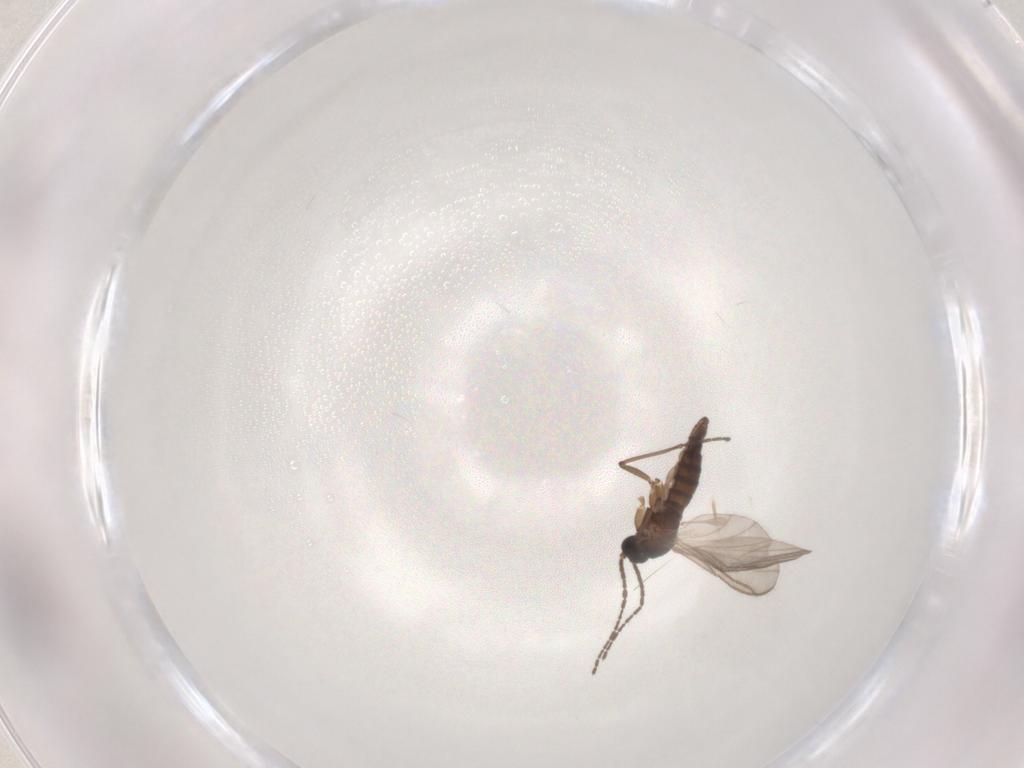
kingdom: Animalia
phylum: Arthropoda
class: Insecta
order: Diptera
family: Sciaridae
